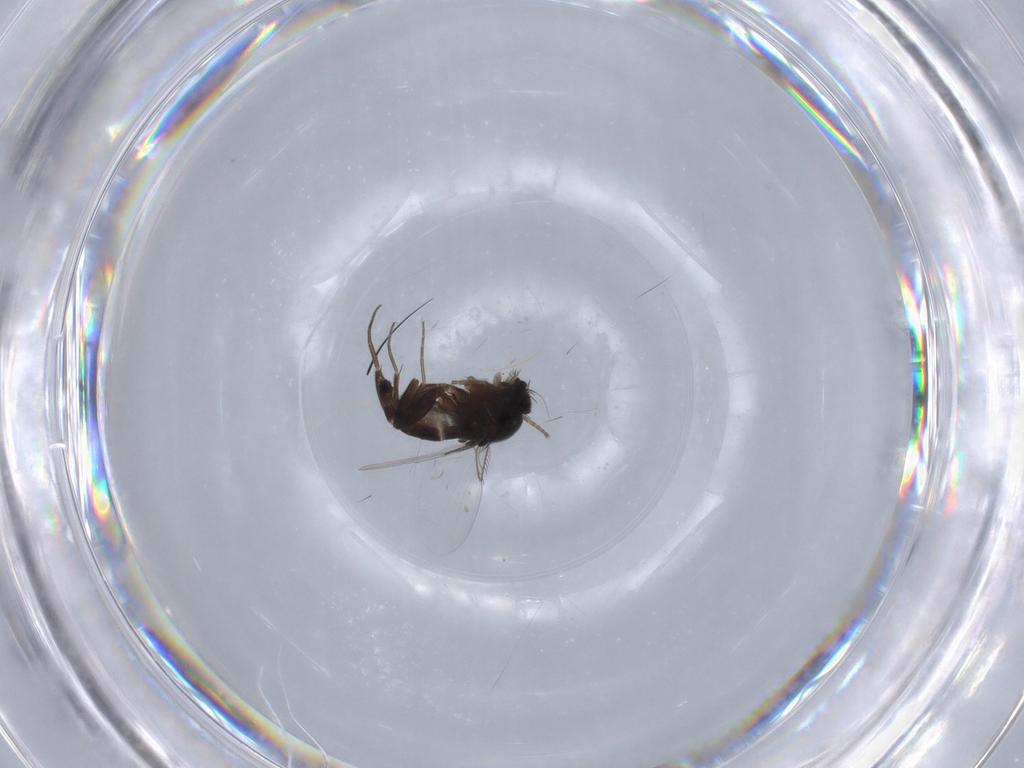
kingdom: Animalia
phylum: Arthropoda
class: Insecta
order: Diptera
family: Phoridae
